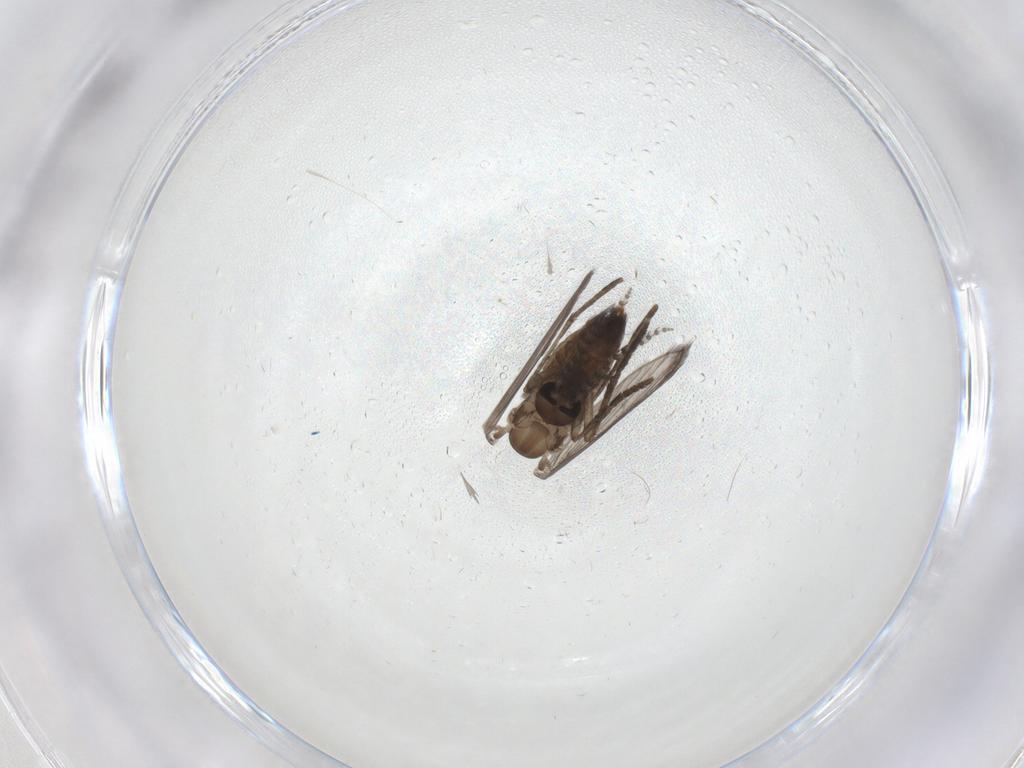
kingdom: Animalia
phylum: Arthropoda
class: Insecta
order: Diptera
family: Psychodidae
